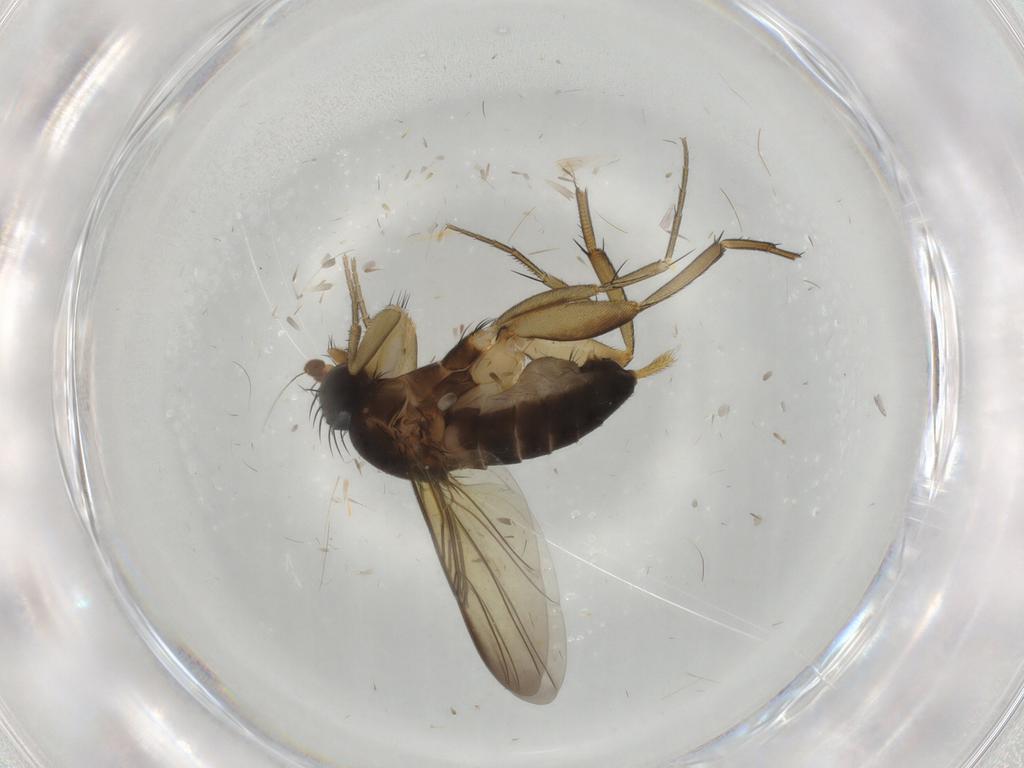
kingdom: Animalia
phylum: Arthropoda
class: Insecta
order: Diptera
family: Phoridae
